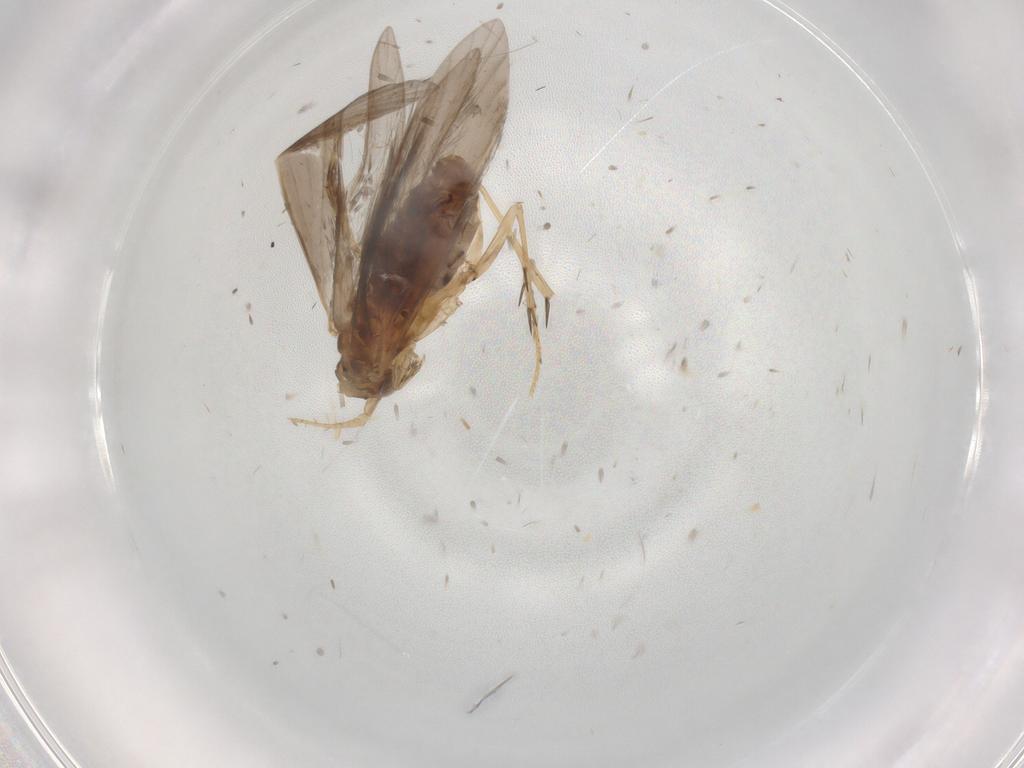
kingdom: Animalia
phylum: Arthropoda
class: Insecta
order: Trichoptera
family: Glossosomatidae
